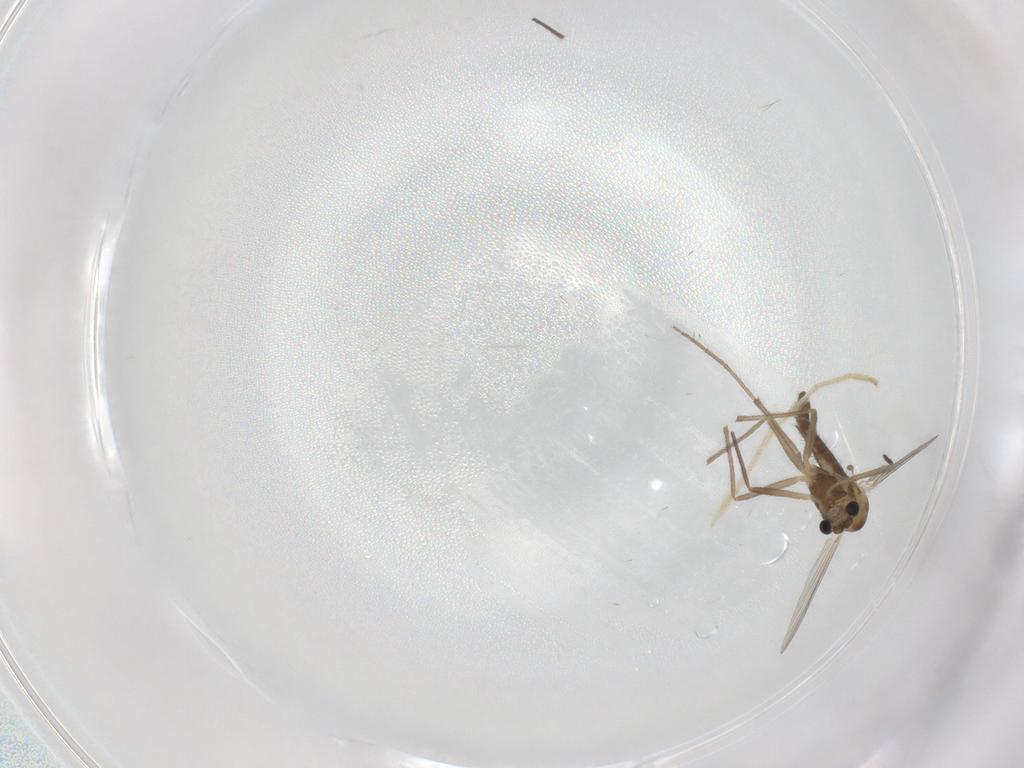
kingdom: Animalia
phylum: Arthropoda
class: Insecta
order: Diptera
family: Chironomidae
